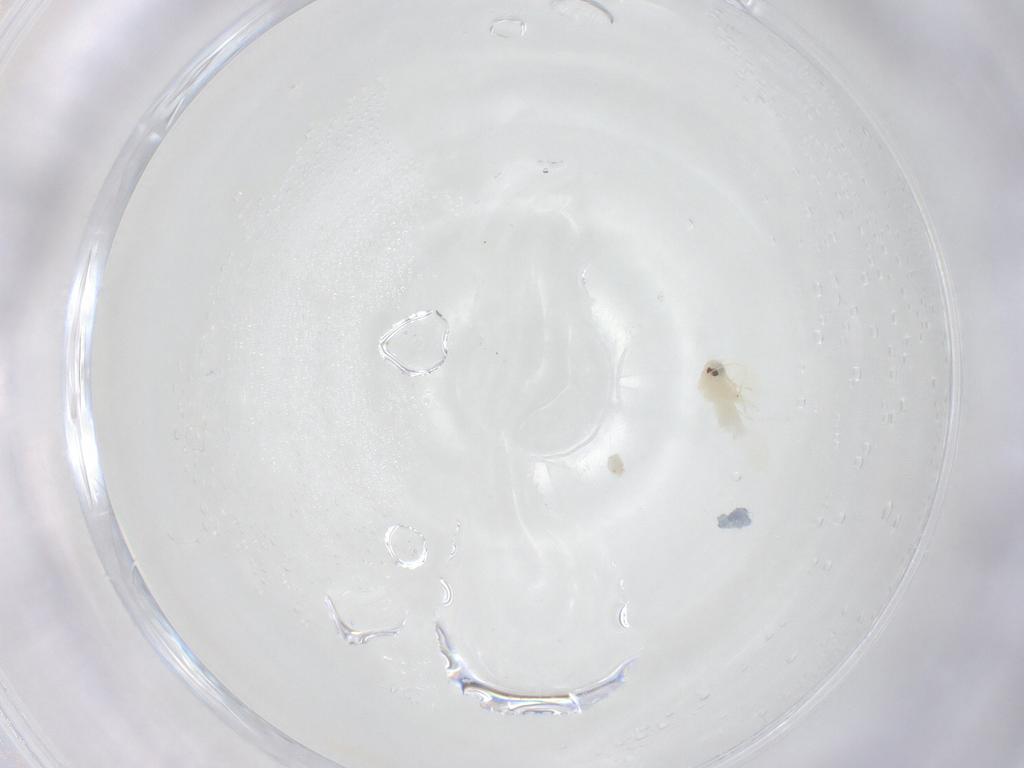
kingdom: Animalia
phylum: Arthropoda
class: Insecta
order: Hemiptera
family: Aleyrodidae
